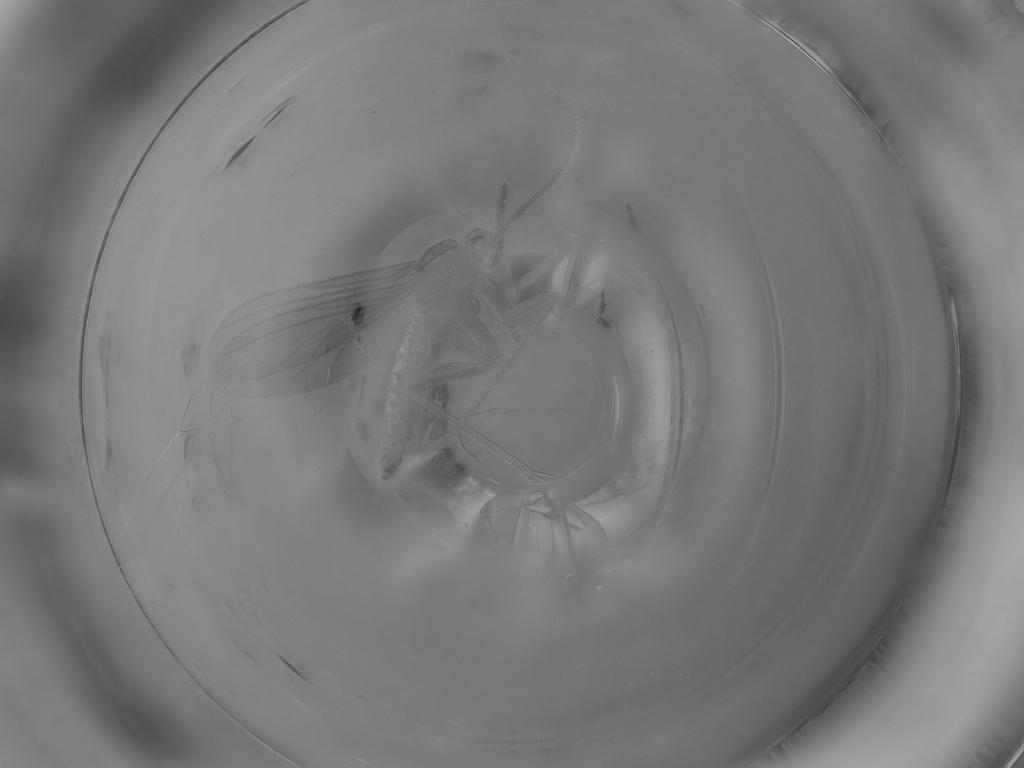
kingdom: Animalia
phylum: Arthropoda
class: Insecta
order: Diptera
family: Sciaridae
